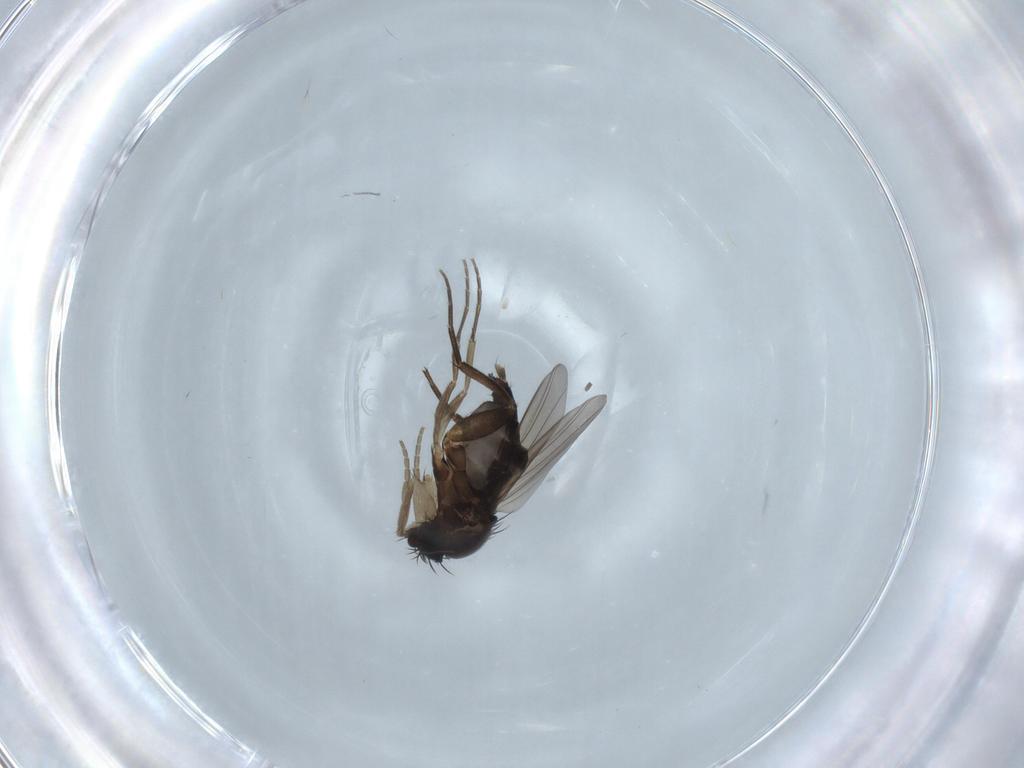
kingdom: Animalia
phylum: Arthropoda
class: Insecta
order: Diptera
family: Phoridae
